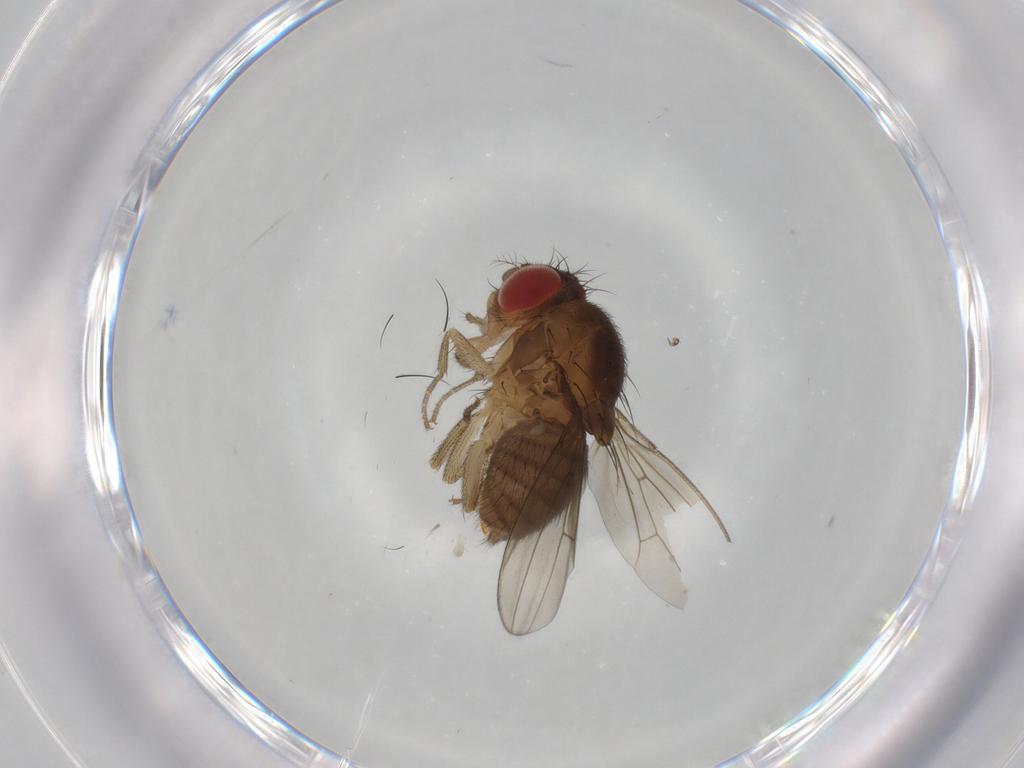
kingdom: Animalia
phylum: Arthropoda
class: Insecta
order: Diptera
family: Drosophilidae
